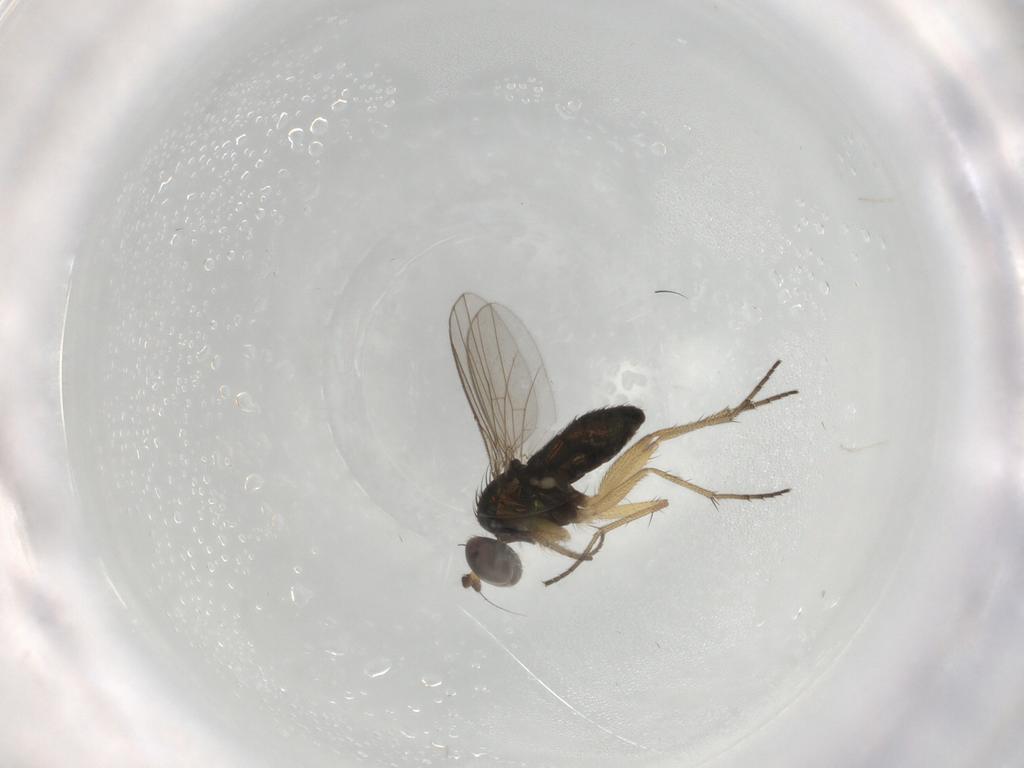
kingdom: Animalia
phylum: Arthropoda
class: Insecta
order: Diptera
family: Dolichopodidae
